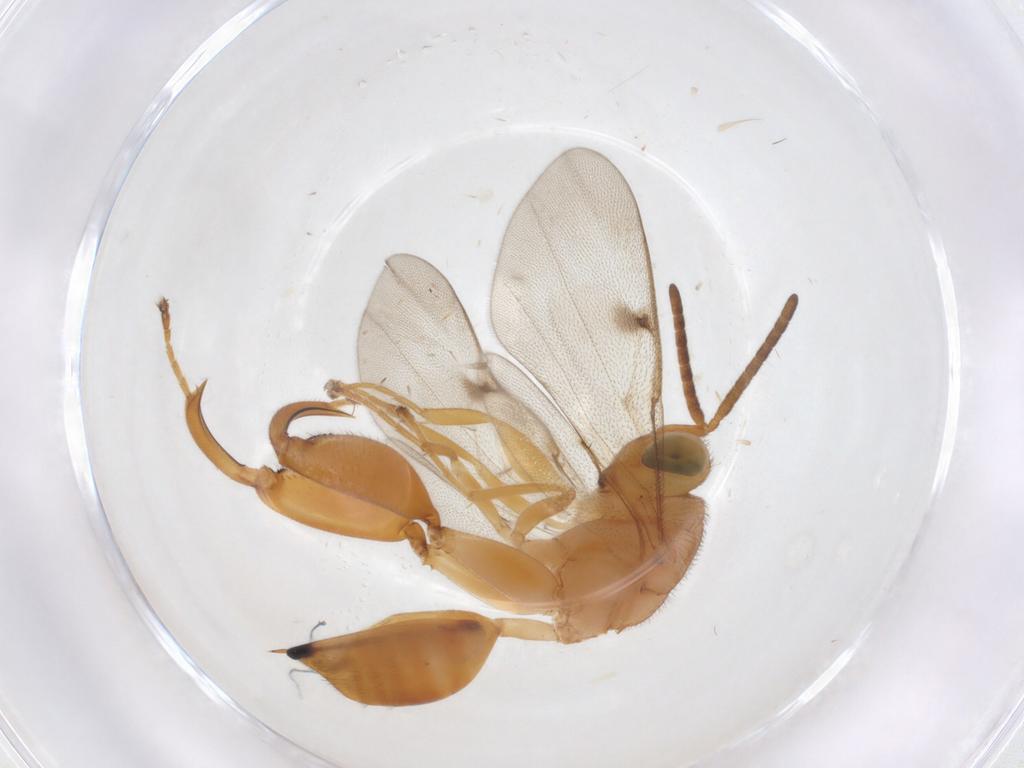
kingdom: Animalia
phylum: Arthropoda
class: Insecta
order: Hymenoptera
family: Chalcididae
